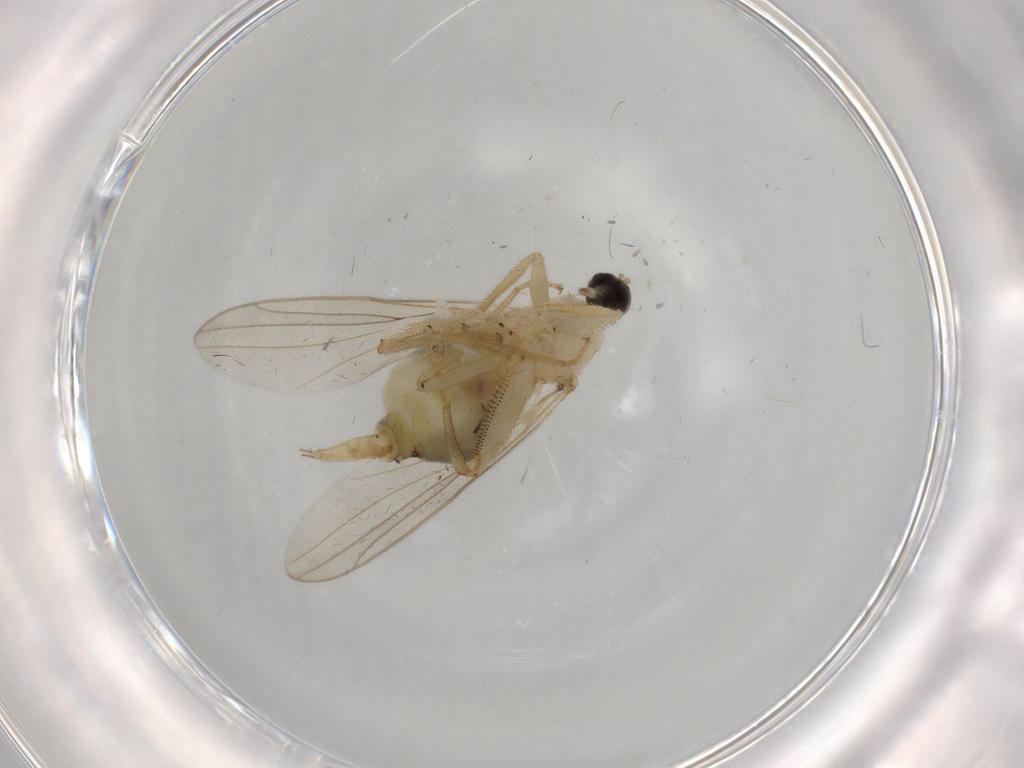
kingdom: Animalia
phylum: Arthropoda
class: Insecta
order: Diptera
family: Hybotidae
